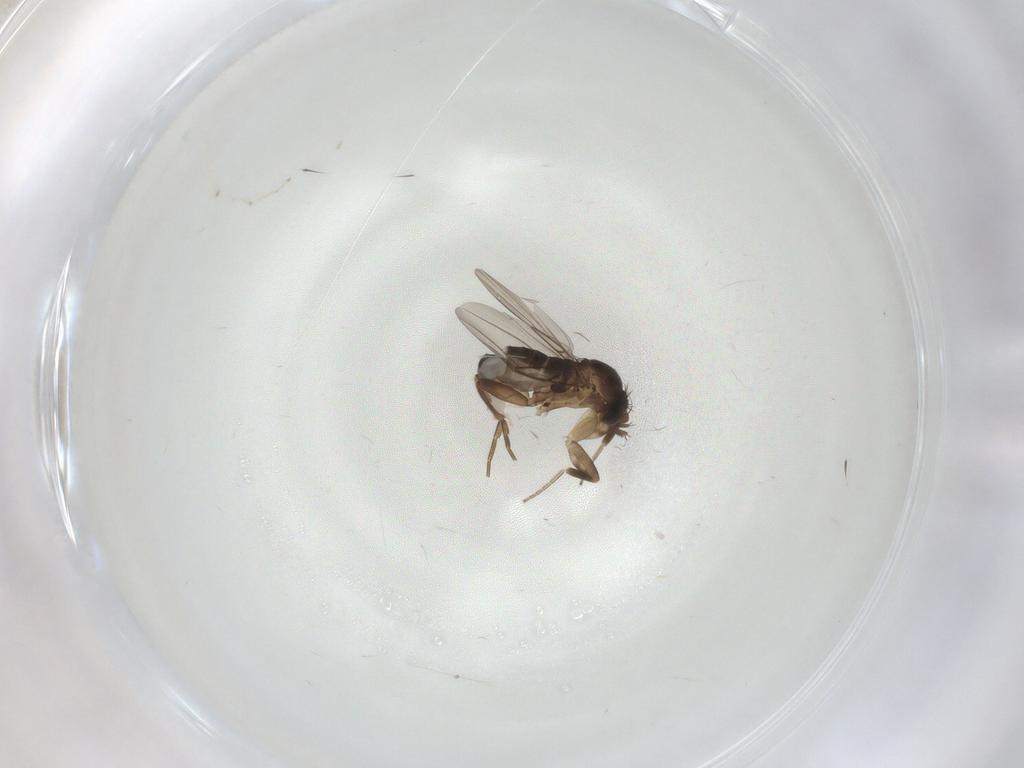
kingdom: Animalia
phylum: Arthropoda
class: Insecta
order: Diptera
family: Phoridae
